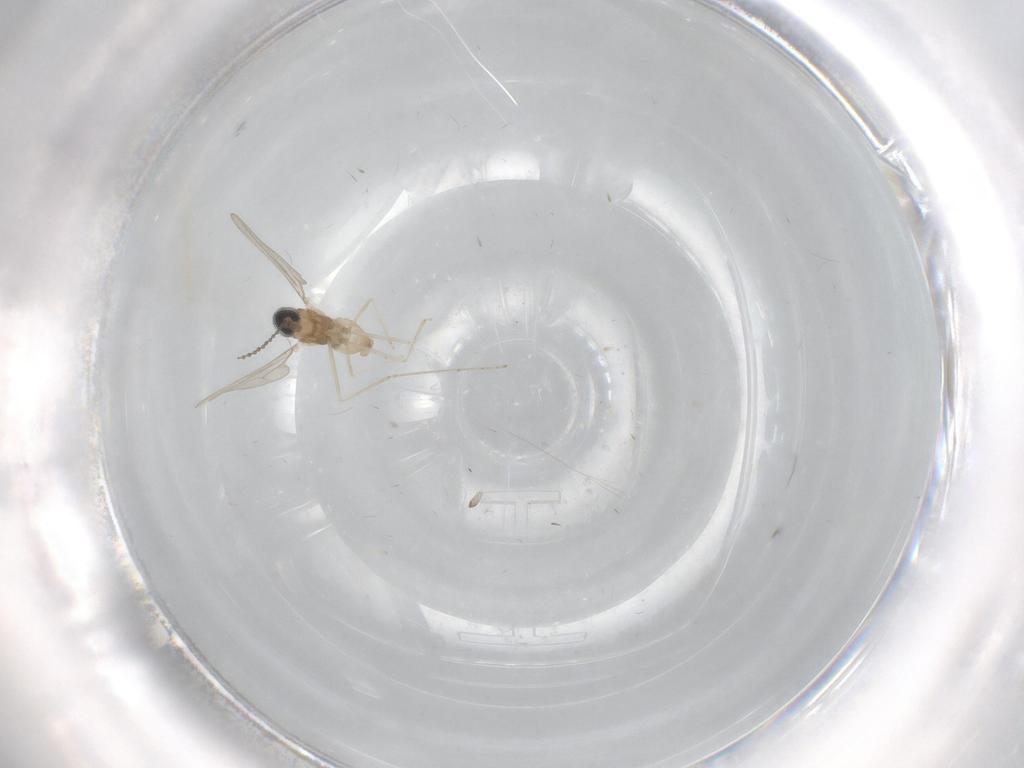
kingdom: Animalia
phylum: Arthropoda
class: Insecta
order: Diptera
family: Cecidomyiidae
